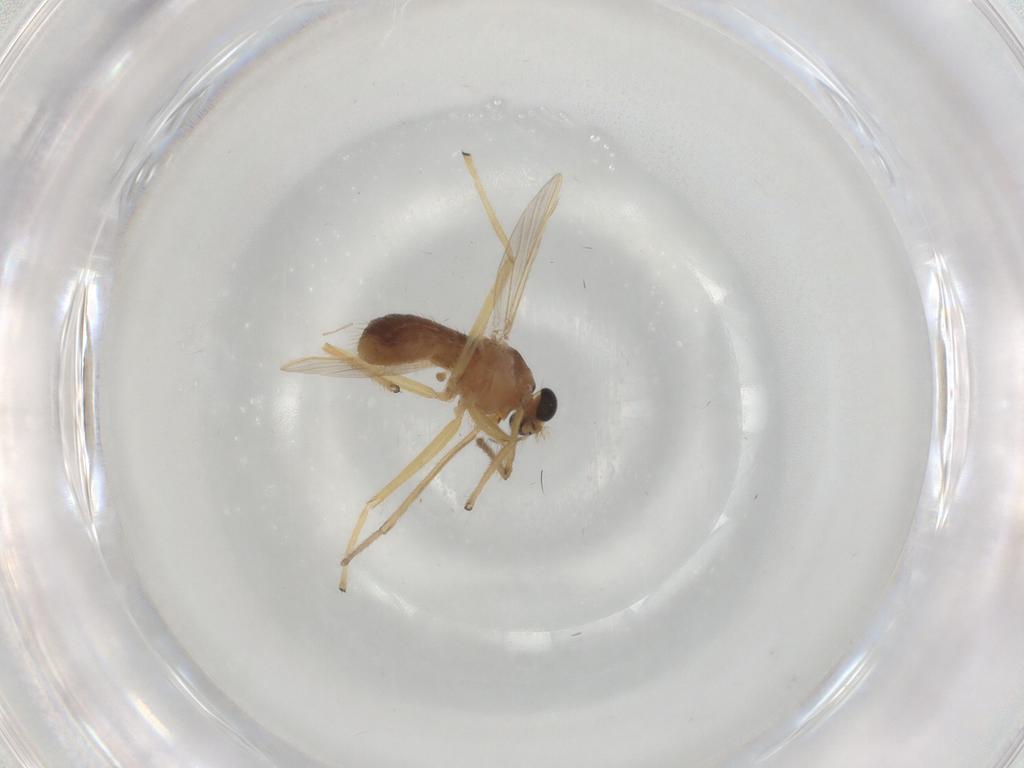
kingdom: Animalia
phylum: Arthropoda
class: Insecta
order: Diptera
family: Chironomidae
